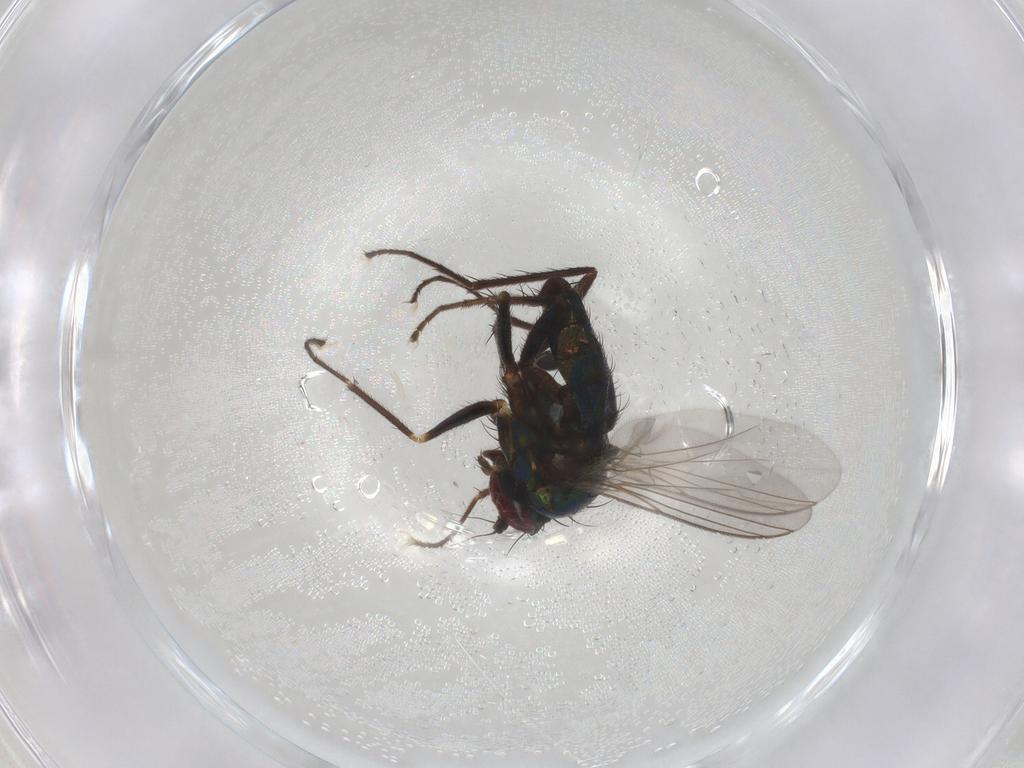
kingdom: Animalia
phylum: Arthropoda
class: Insecta
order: Diptera
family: Dolichopodidae
